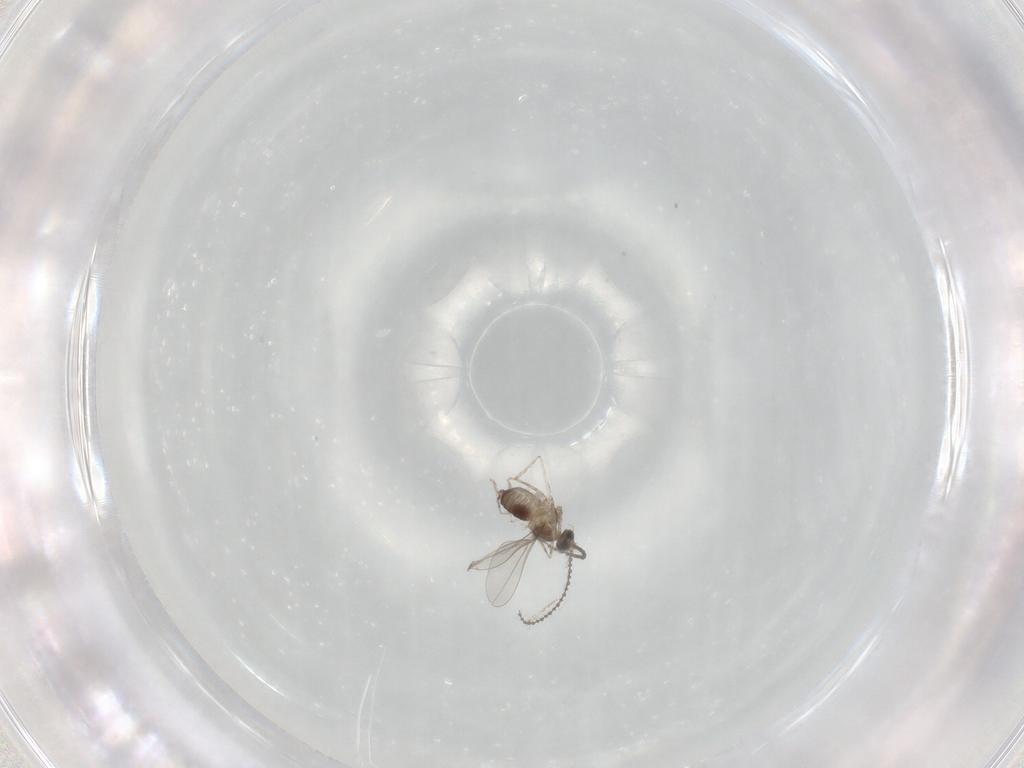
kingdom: Animalia
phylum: Arthropoda
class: Insecta
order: Diptera
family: Cecidomyiidae
